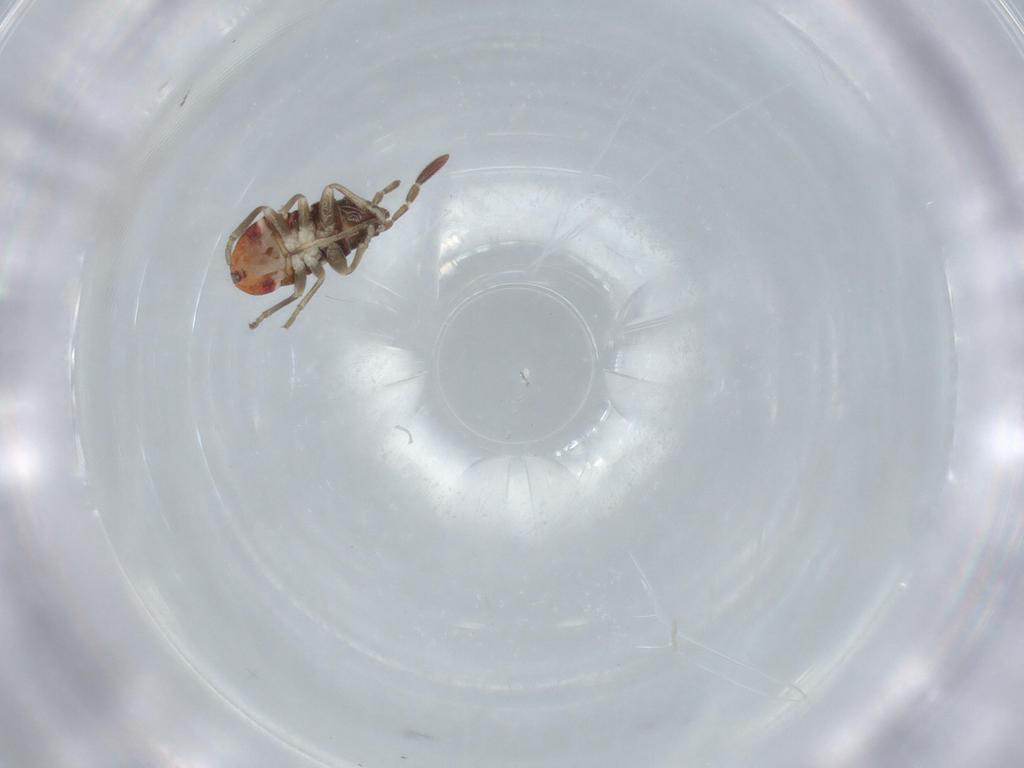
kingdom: Animalia
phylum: Arthropoda
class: Insecta
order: Hemiptera
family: Rhyparochromidae
